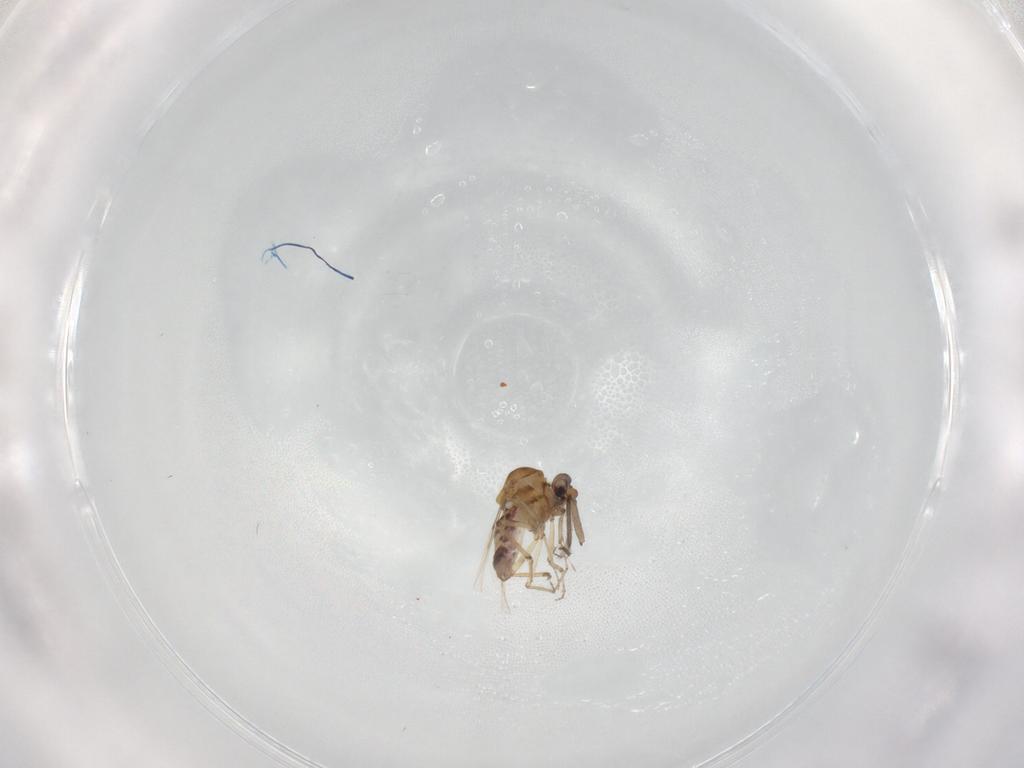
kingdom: Animalia
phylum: Arthropoda
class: Insecta
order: Diptera
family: Ceratopogonidae
